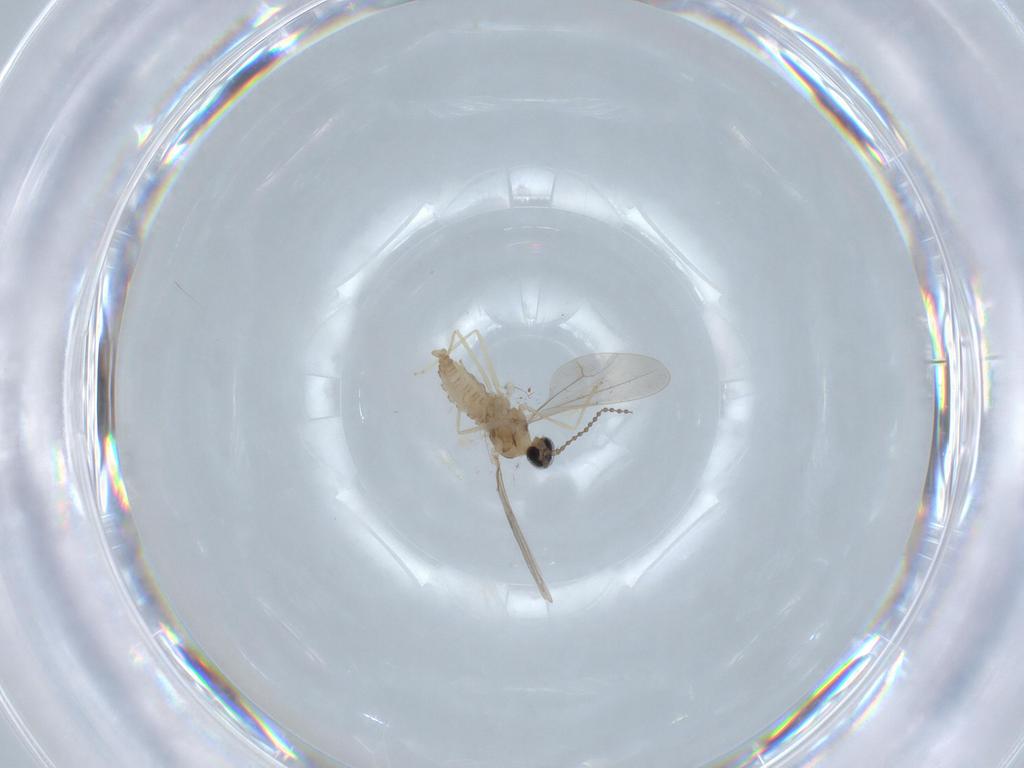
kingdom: Animalia
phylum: Arthropoda
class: Insecta
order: Diptera
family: Cecidomyiidae
